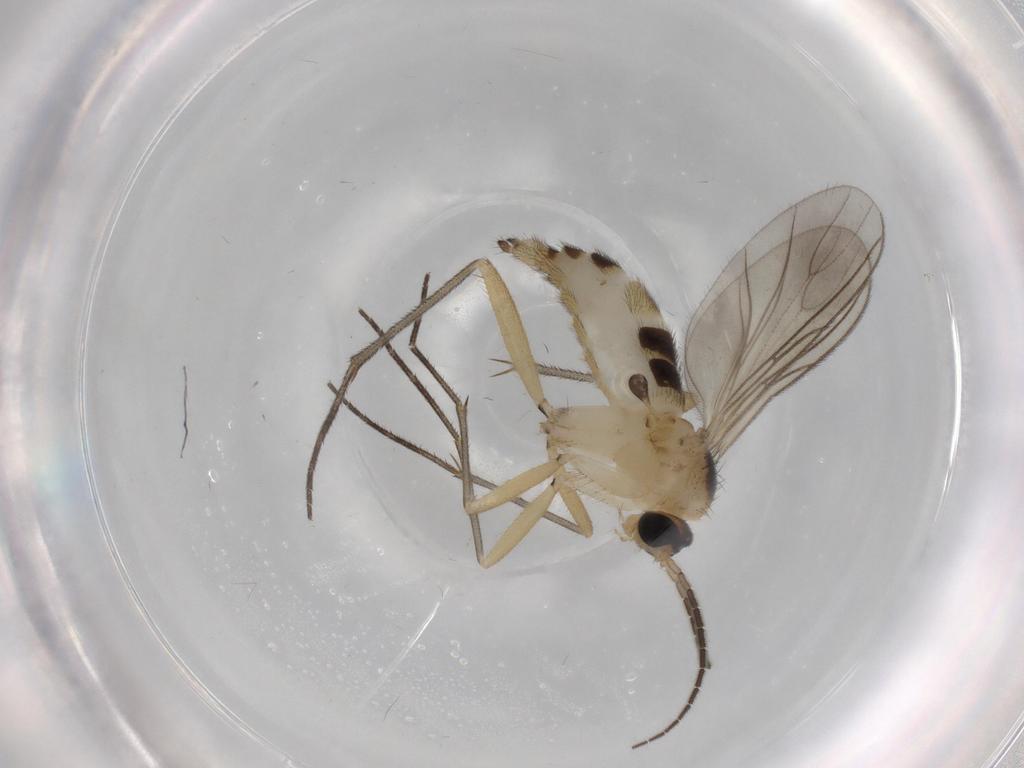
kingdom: Animalia
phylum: Arthropoda
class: Insecta
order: Diptera
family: Sciaridae
